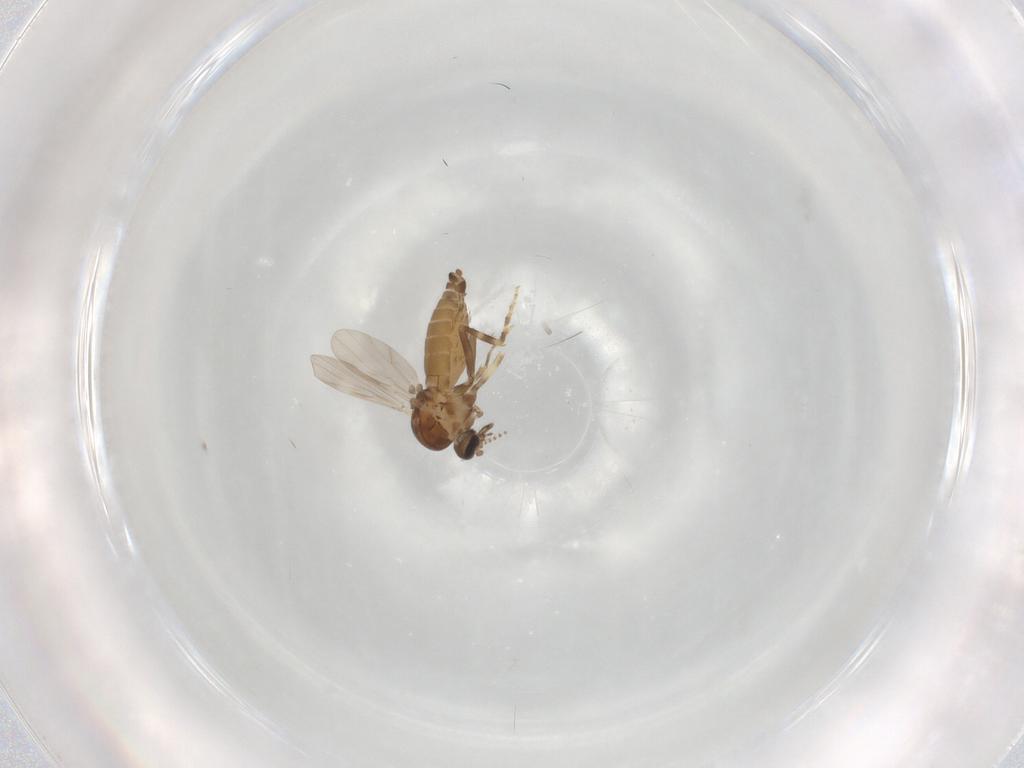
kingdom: Animalia
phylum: Arthropoda
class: Insecta
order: Diptera
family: Ceratopogonidae
